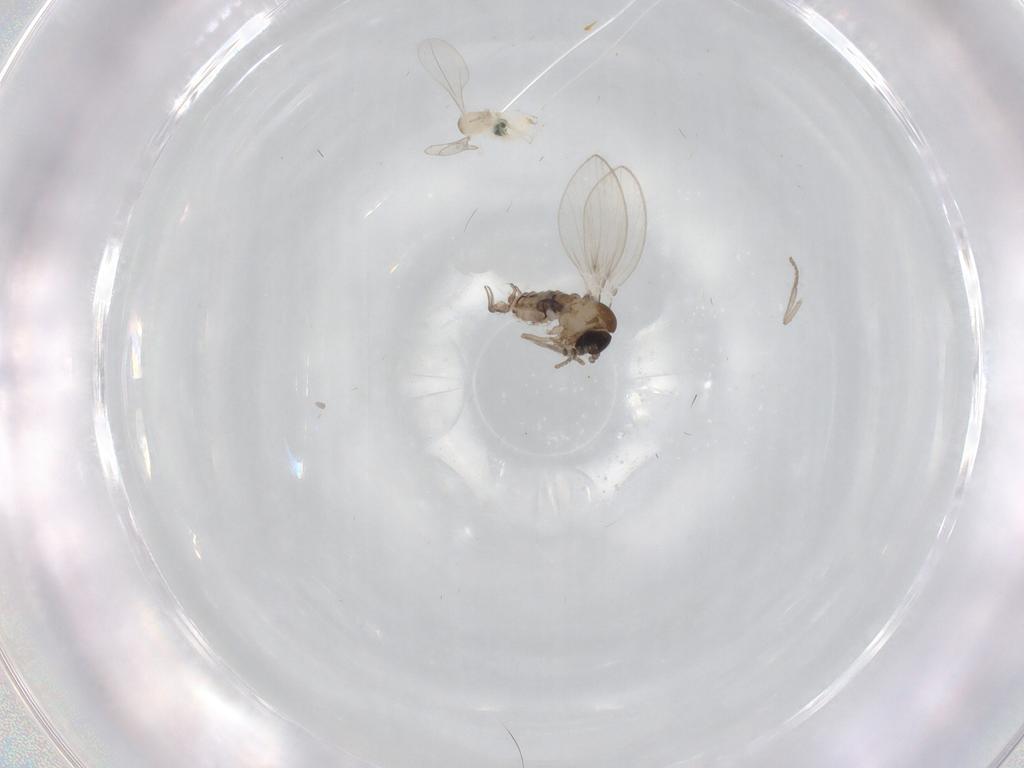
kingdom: Animalia
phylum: Arthropoda
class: Insecta
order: Diptera
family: Psychodidae
